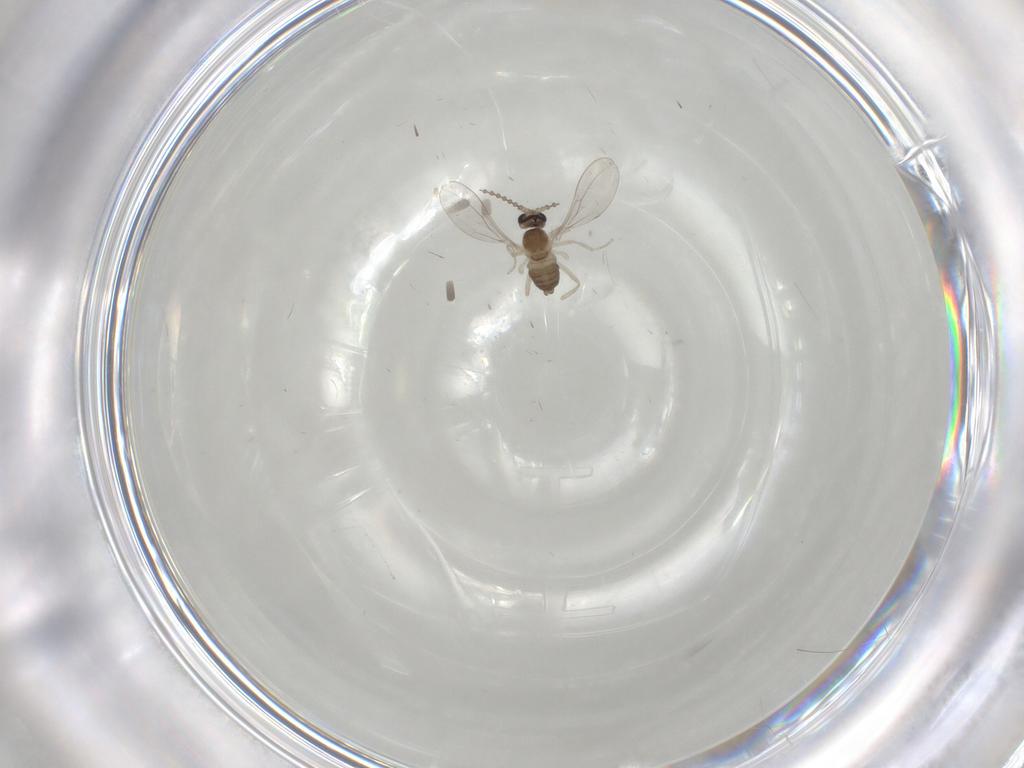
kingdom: Animalia
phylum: Arthropoda
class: Insecta
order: Diptera
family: Cecidomyiidae
